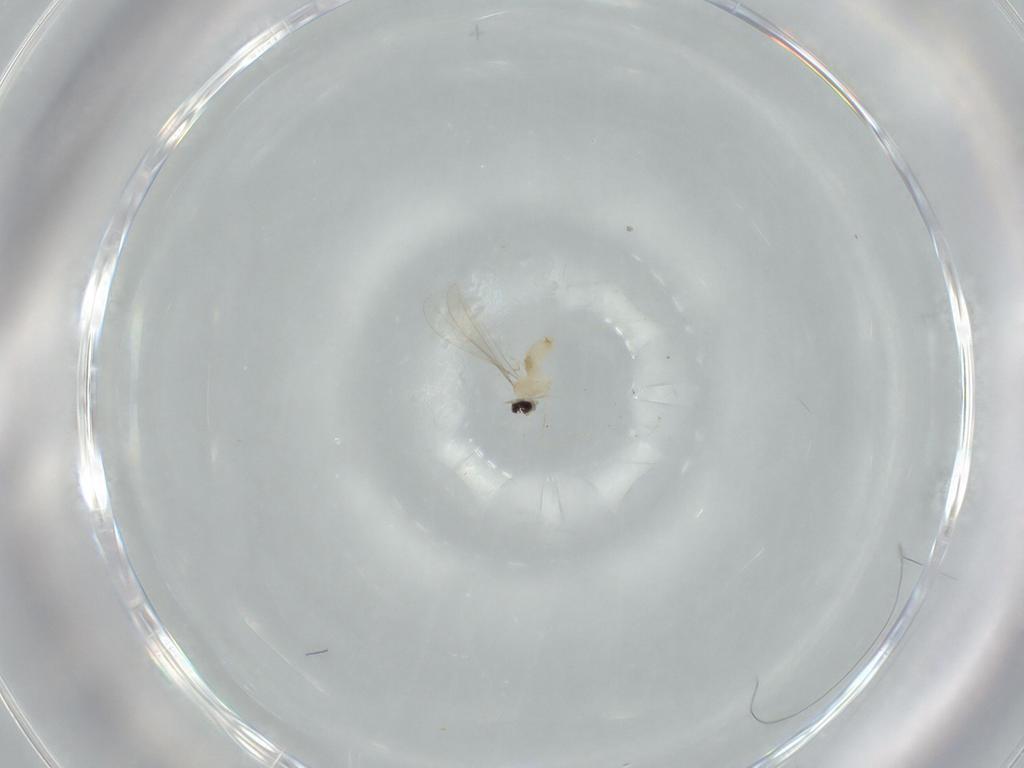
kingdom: Animalia
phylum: Arthropoda
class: Insecta
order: Diptera
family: Cecidomyiidae
